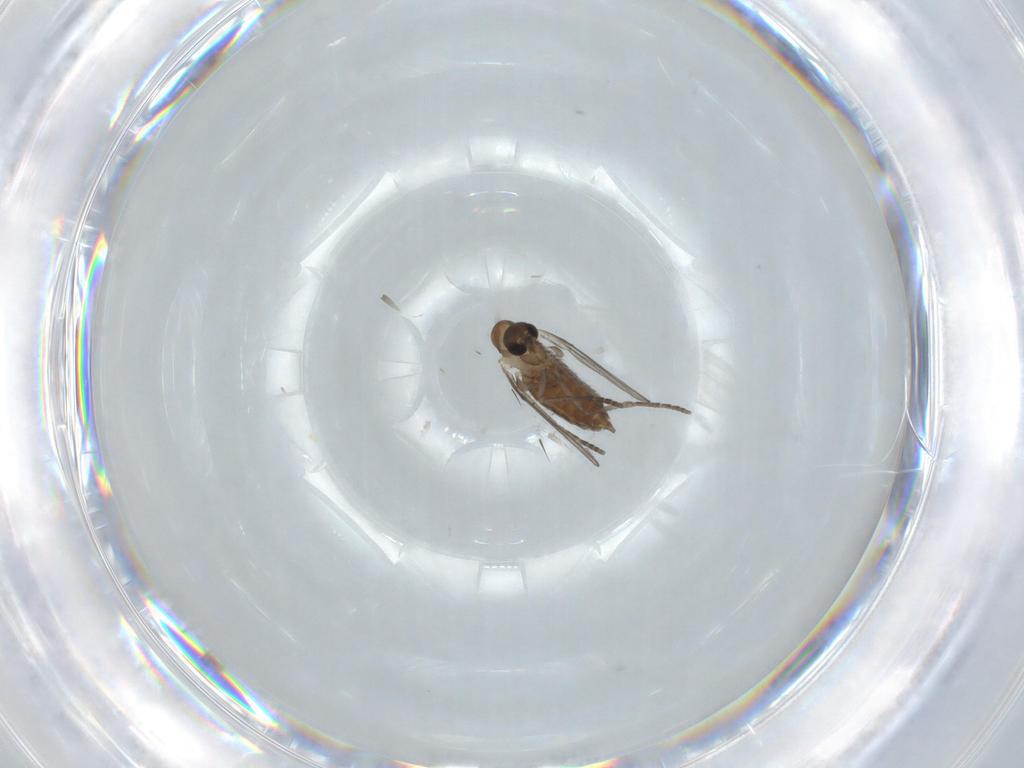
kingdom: Animalia
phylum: Arthropoda
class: Insecta
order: Diptera
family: Psychodidae
